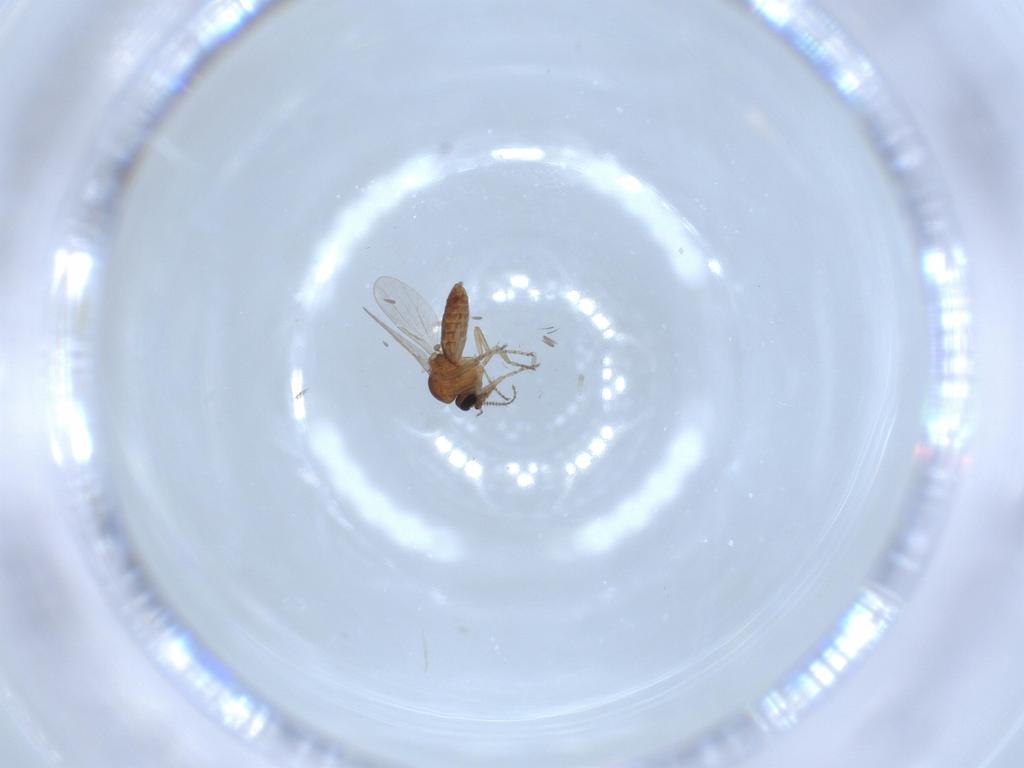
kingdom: Animalia
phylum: Arthropoda
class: Insecta
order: Diptera
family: Ceratopogonidae
